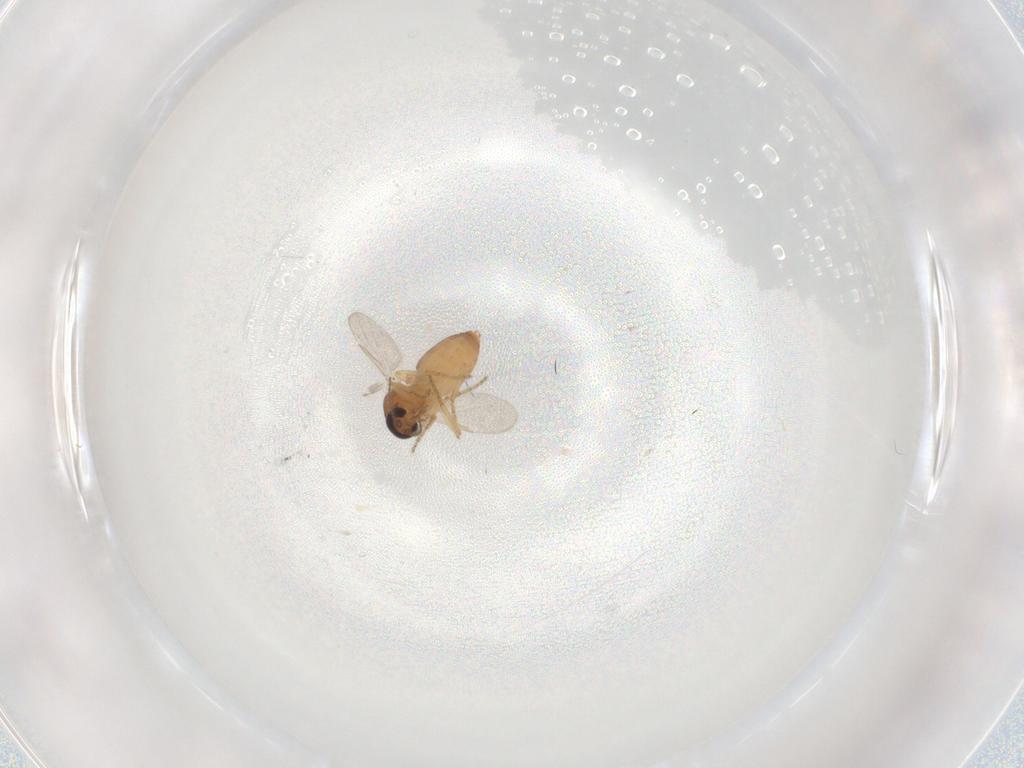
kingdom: Animalia
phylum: Arthropoda
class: Insecta
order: Diptera
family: Ceratopogonidae
